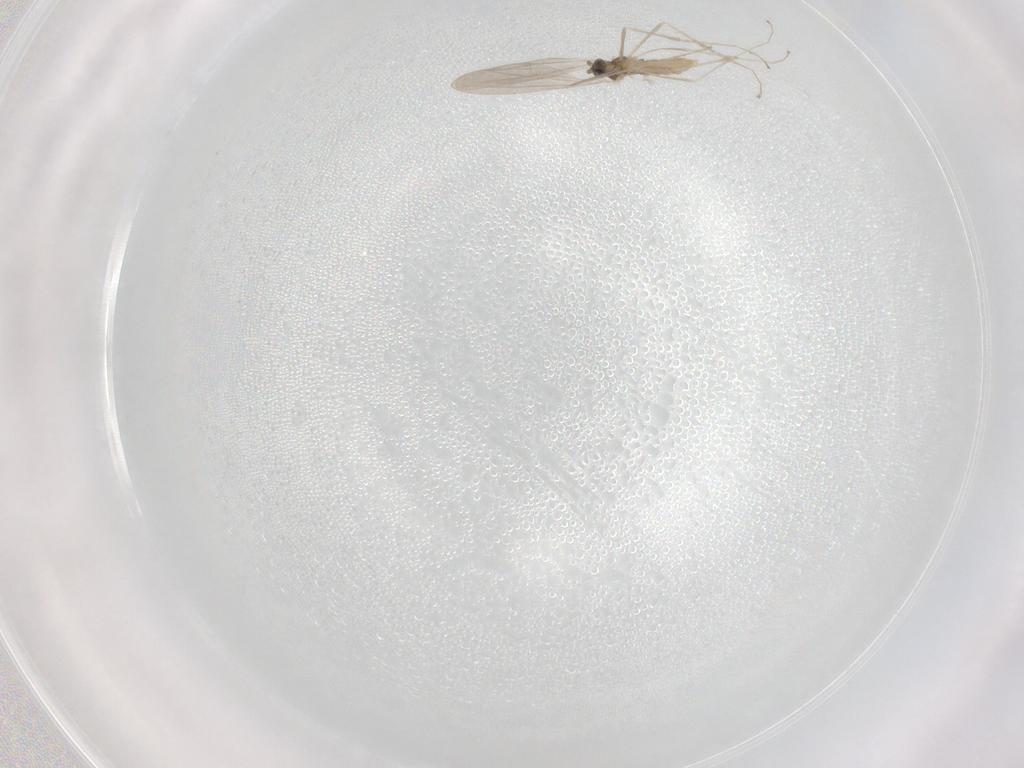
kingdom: Animalia
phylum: Arthropoda
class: Insecta
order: Diptera
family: Cecidomyiidae
